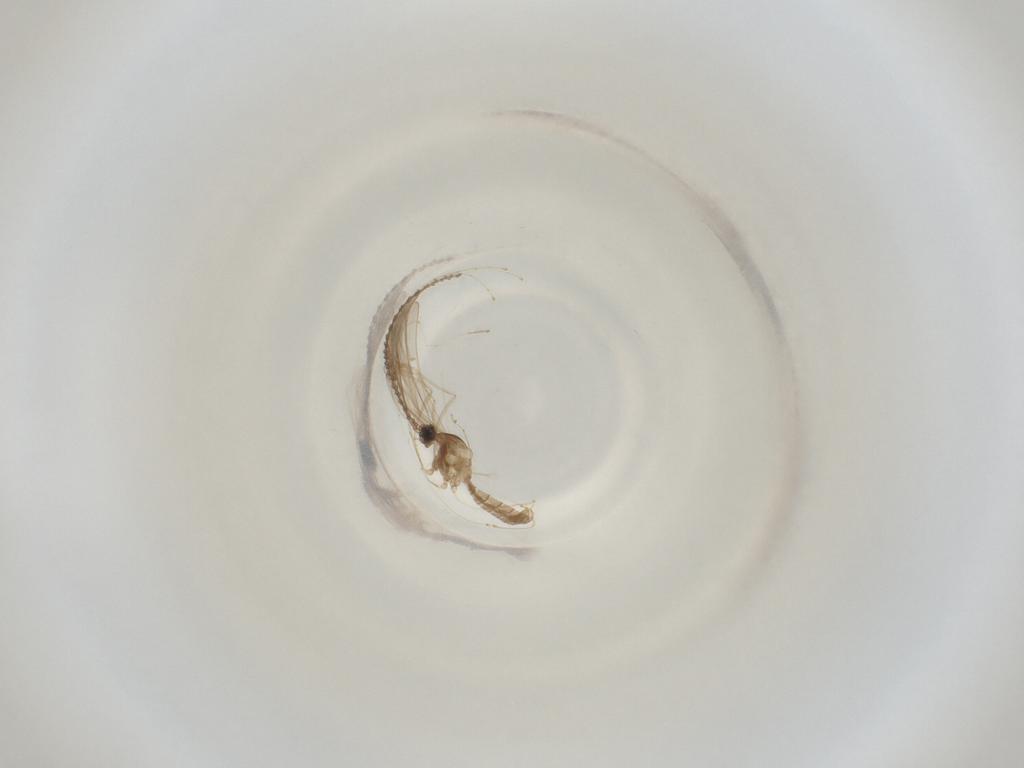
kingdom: Animalia
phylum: Arthropoda
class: Insecta
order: Diptera
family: Cecidomyiidae
